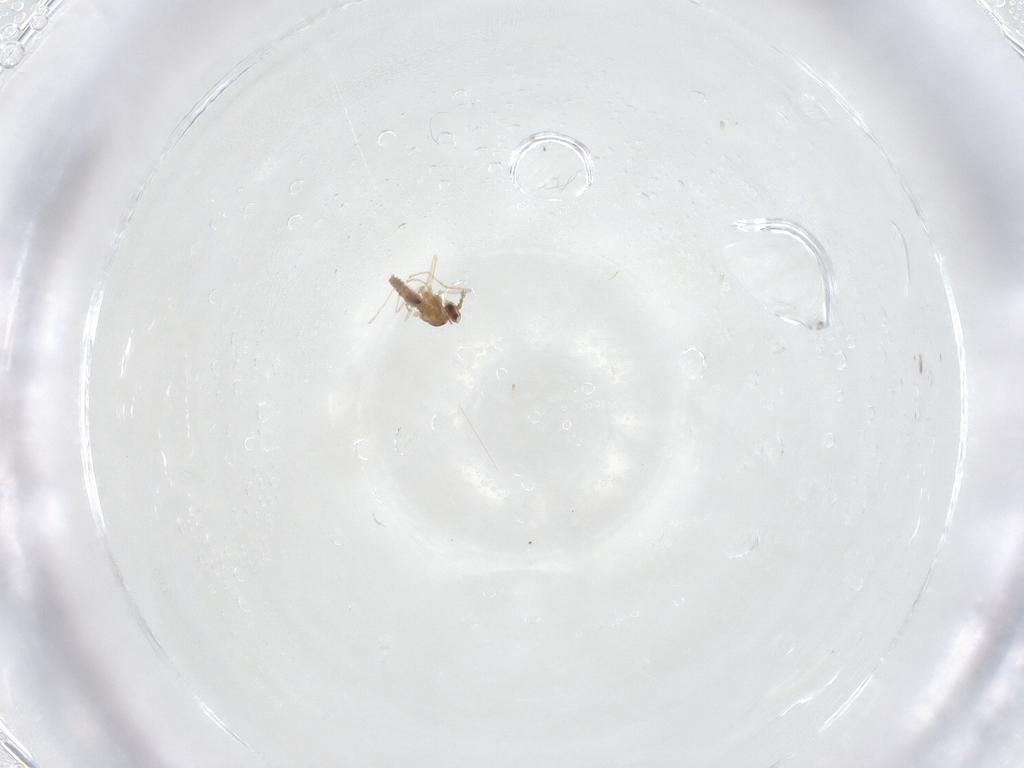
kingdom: Animalia
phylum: Arthropoda
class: Insecta
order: Diptera
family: Cecidomyiidae
